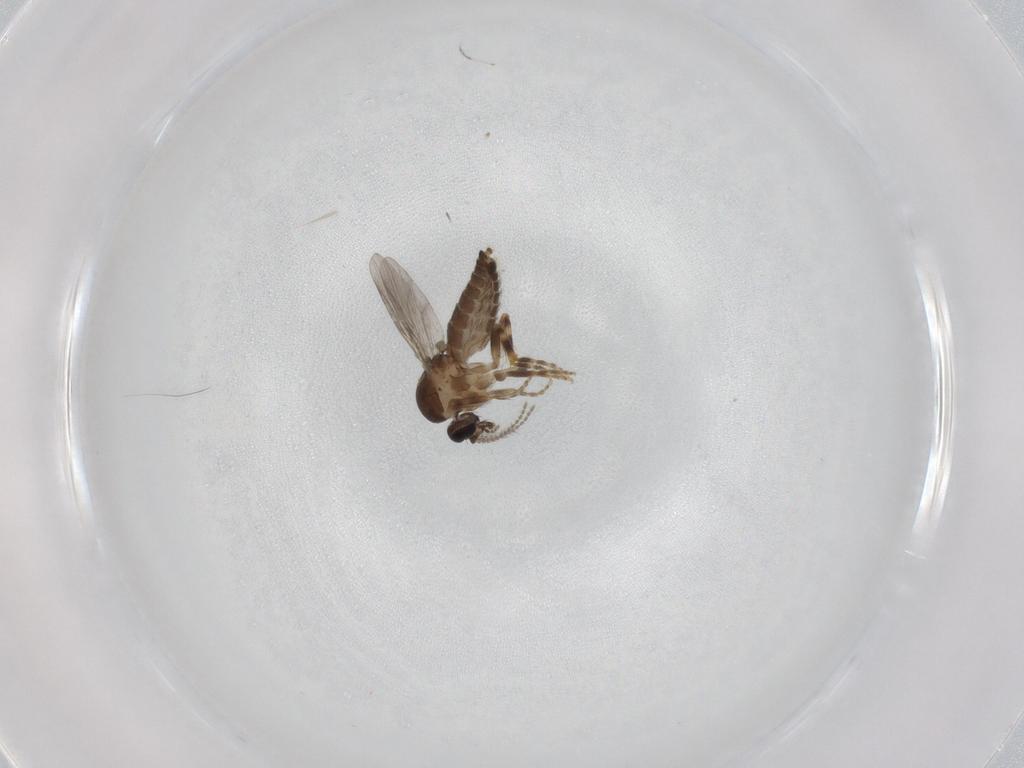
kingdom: Animalia
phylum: Arthropoda
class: Insecta
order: Diptera
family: Ceratopogonidae
